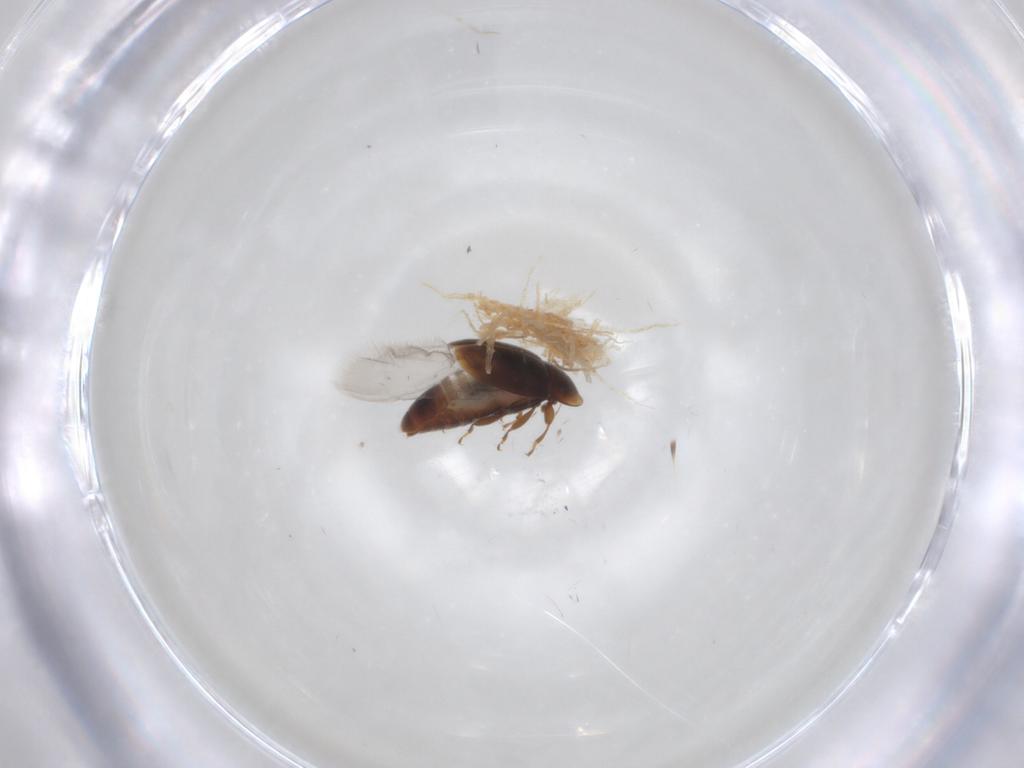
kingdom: Animalia
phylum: Arthropoda
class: Insecta
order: Coleoptera
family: Corylophidae
